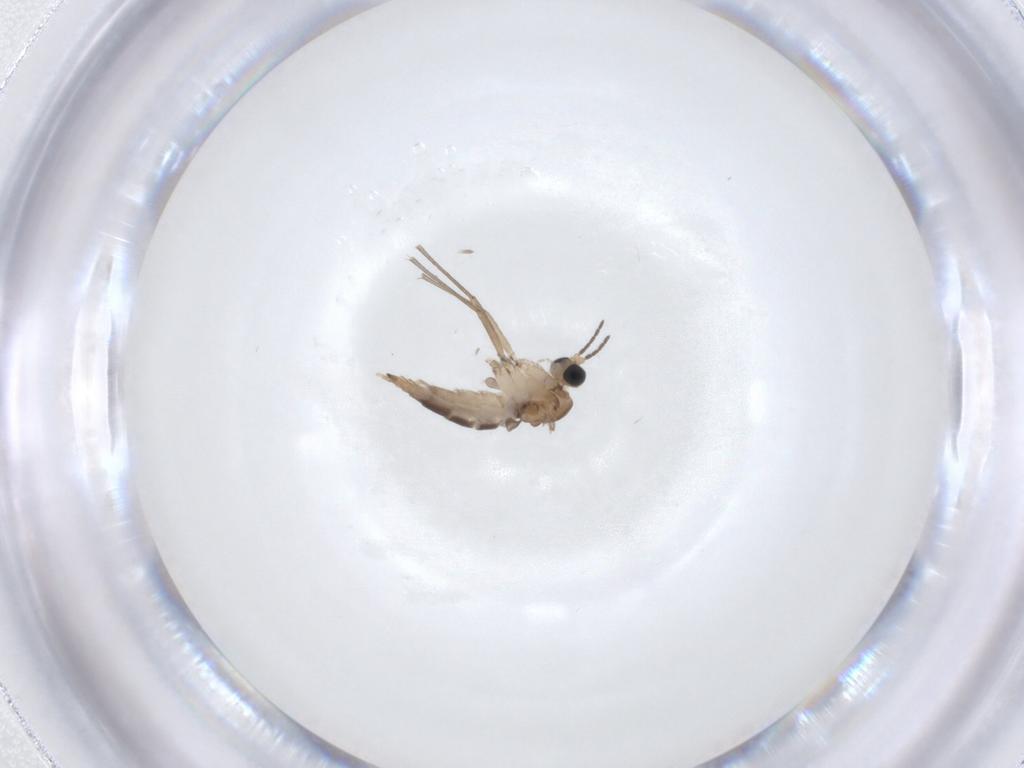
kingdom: Animalia
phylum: Arthropoda
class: Insecta
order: Diptera
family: Sciaridae
